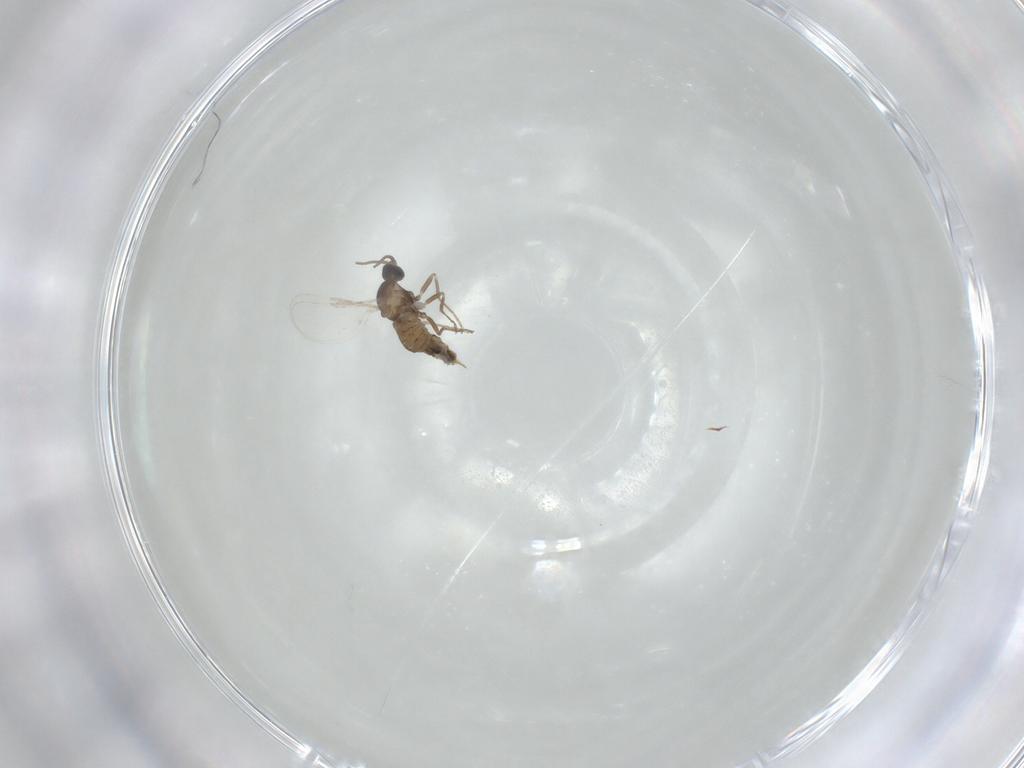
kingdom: Animalia
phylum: Arthropoda
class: Insecta
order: Diptera
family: Cecidomyiidae
